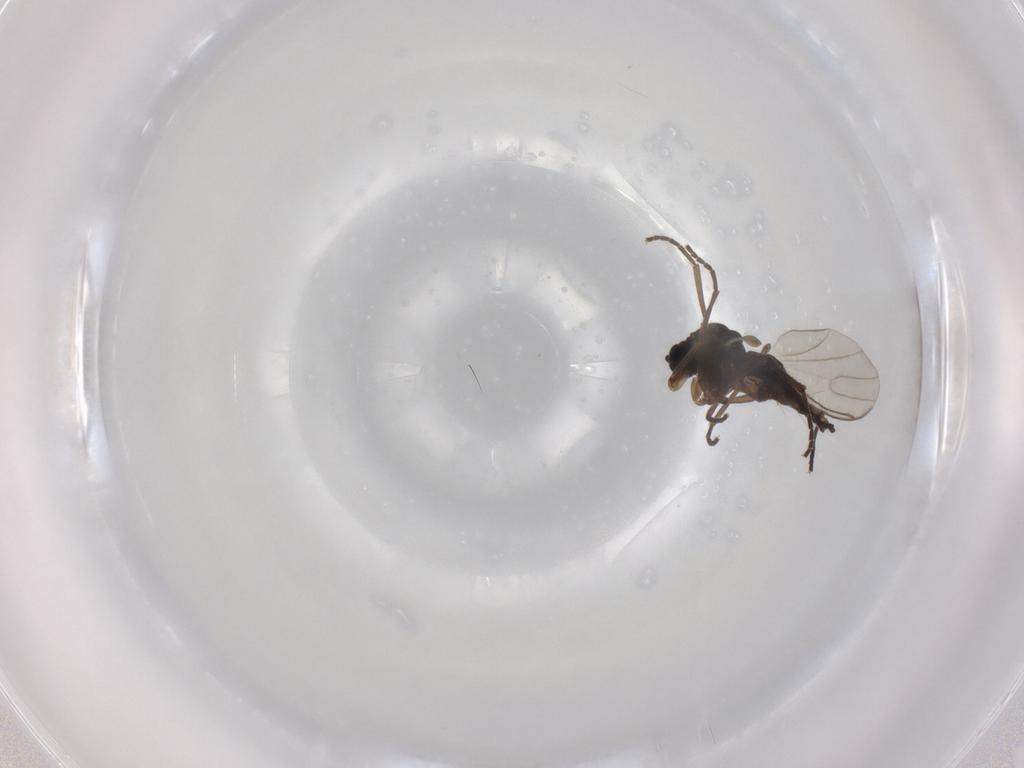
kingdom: Animalia
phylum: Arthropoda
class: Insecta
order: Diptera
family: Sciaridae
